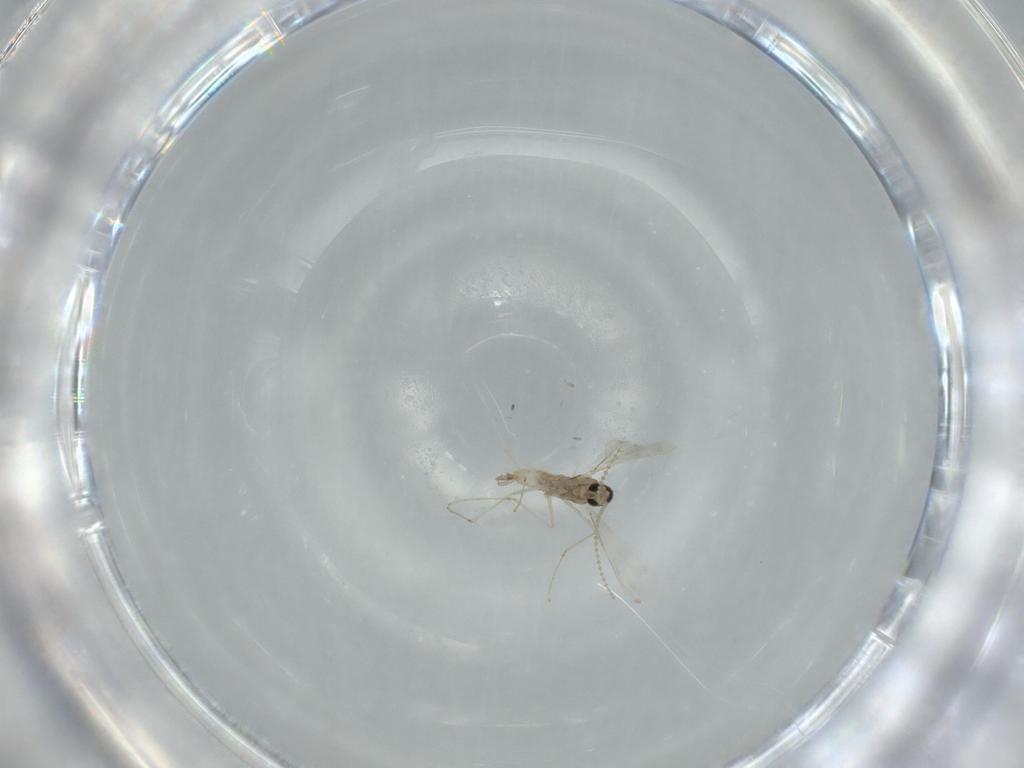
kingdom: Animalia
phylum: Arthropoda
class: Insecta
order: Diptera
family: Cecidomyiidae
